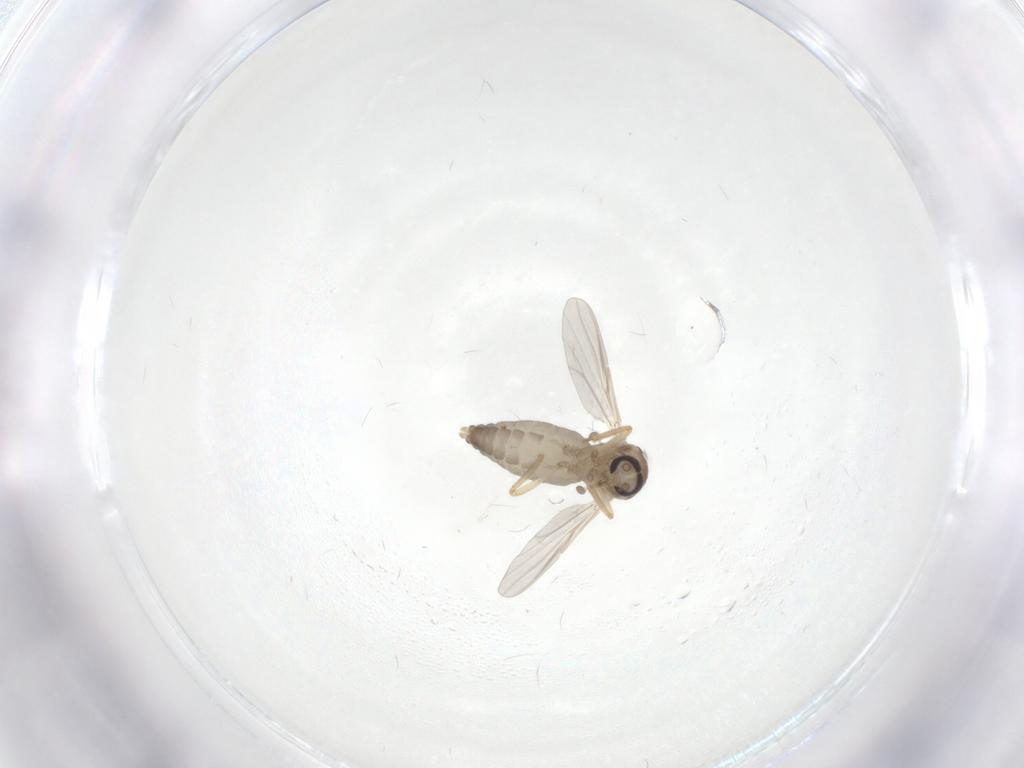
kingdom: Animalia
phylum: Arthropoda
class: Insecta
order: Diptera
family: Ceratopogonidae
